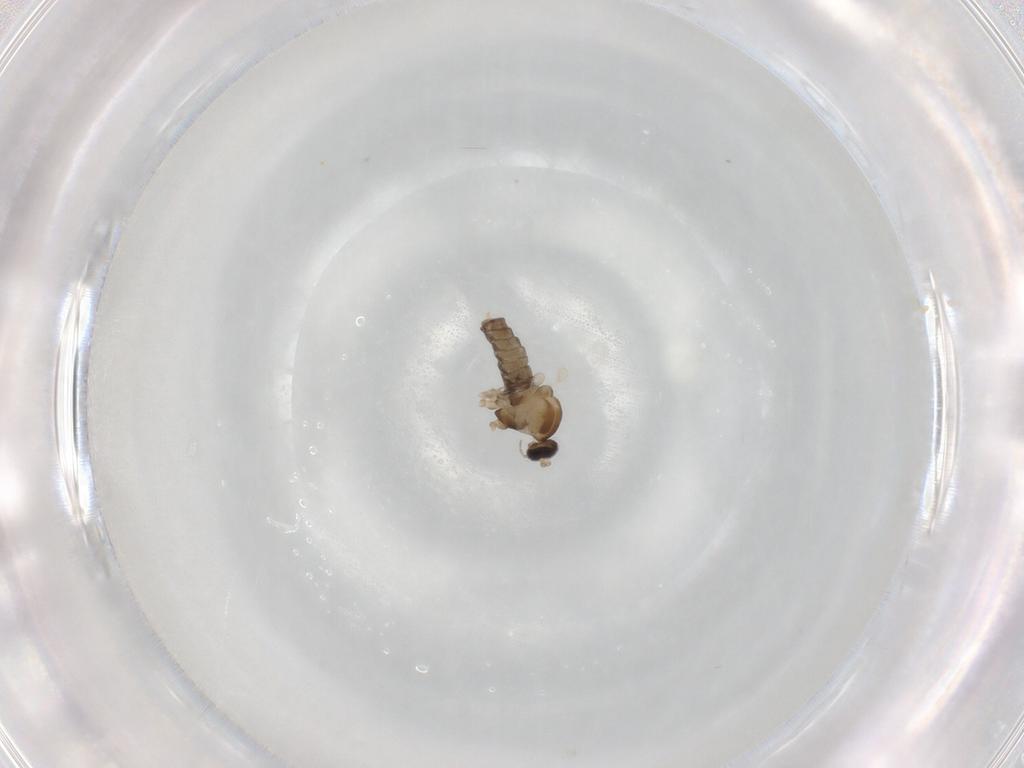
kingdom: Animalia
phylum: Arthropoda
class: Insecta
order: Diptera
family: Cecidomyiidae
